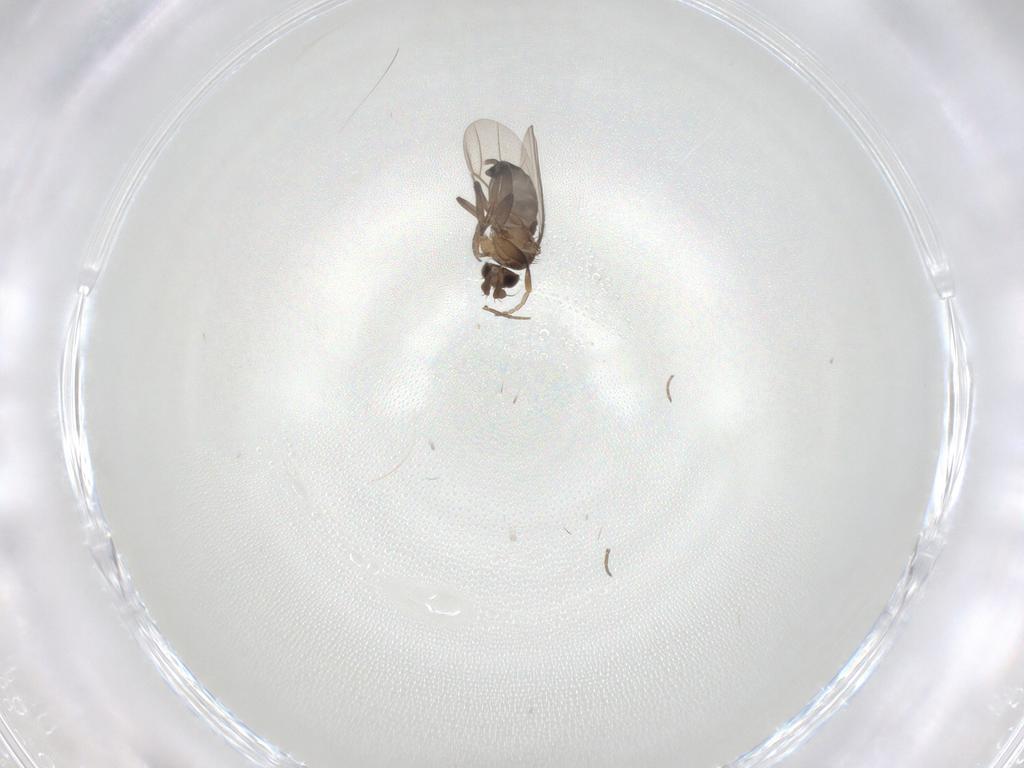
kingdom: Animalia
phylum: Arthropoda
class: Insecta
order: Diptera
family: Phoridae
